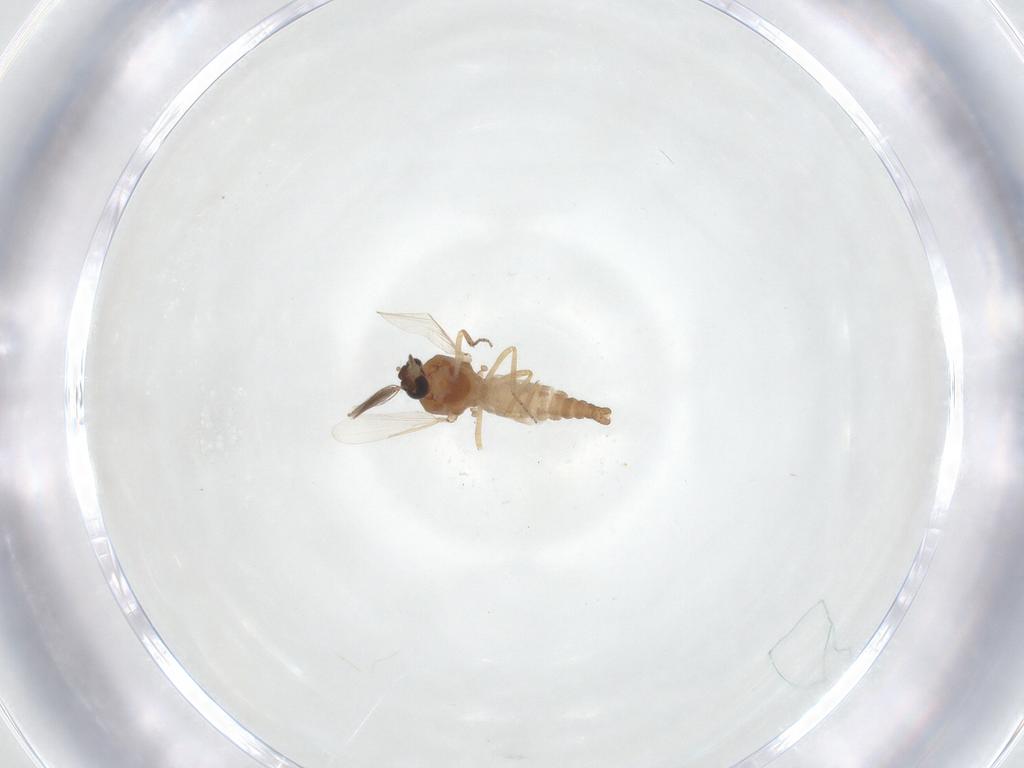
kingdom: Animalia
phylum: Arthropoda
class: Insecta
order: Diptera
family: Ceratopogonidae
